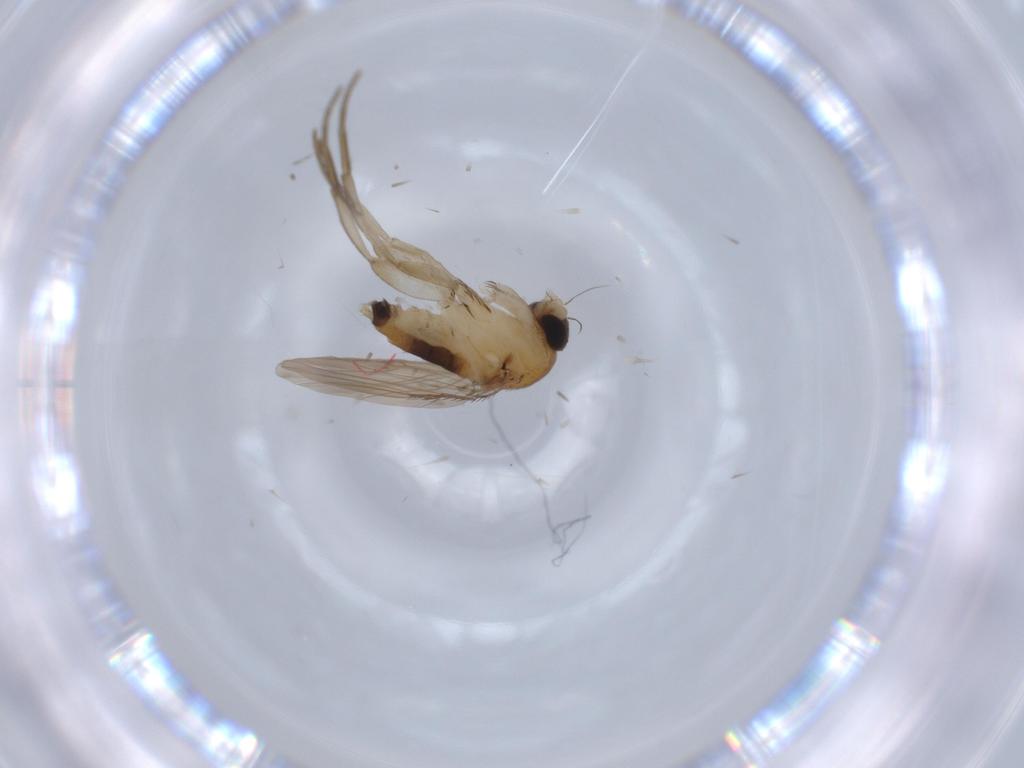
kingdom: Animalia
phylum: Arthropoda
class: Insecta
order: Diptera
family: Phoridae
